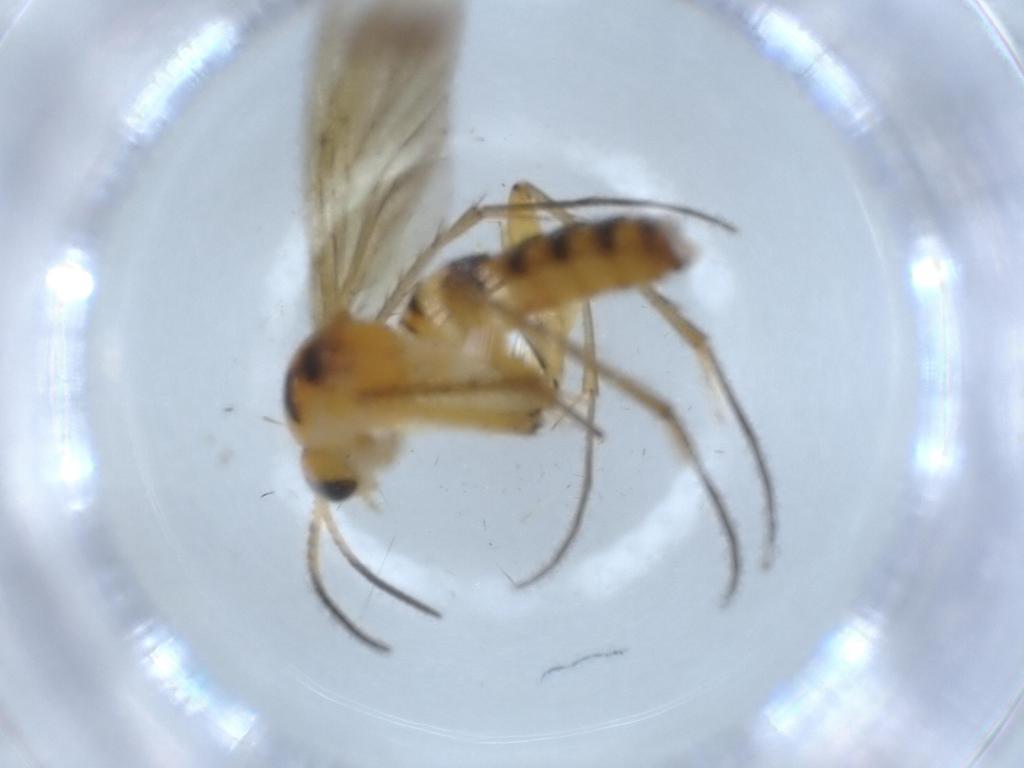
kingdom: Animalia
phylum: Arthropoda
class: Insecta
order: Diptera
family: Mycetophilidae
